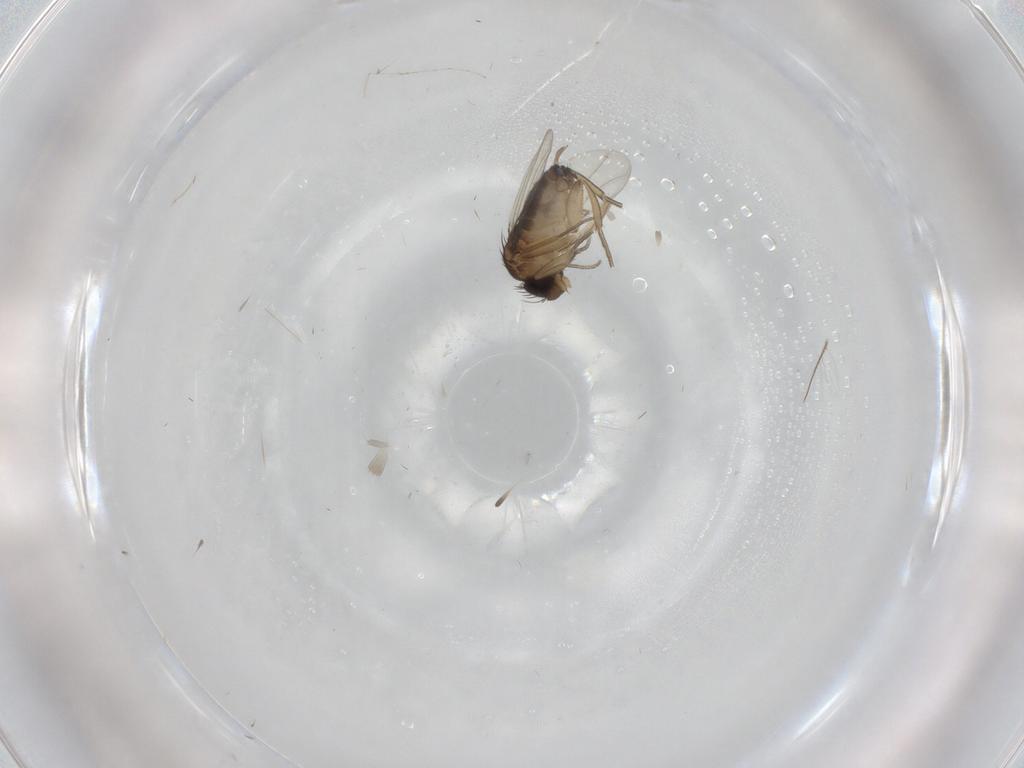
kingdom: Animalia
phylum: Arthropoda
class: Insecta
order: Diptera
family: Chironomidae
